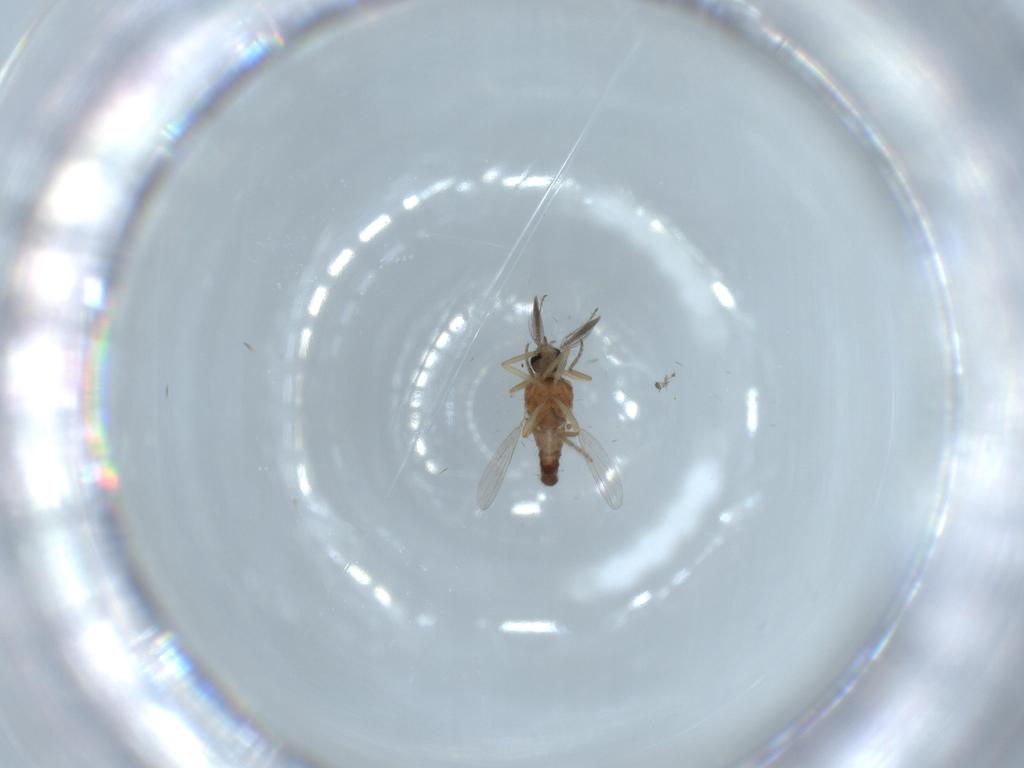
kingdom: Animalia
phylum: Arthropoda
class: Insecta
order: Diptera
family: Ceratopogonidae
